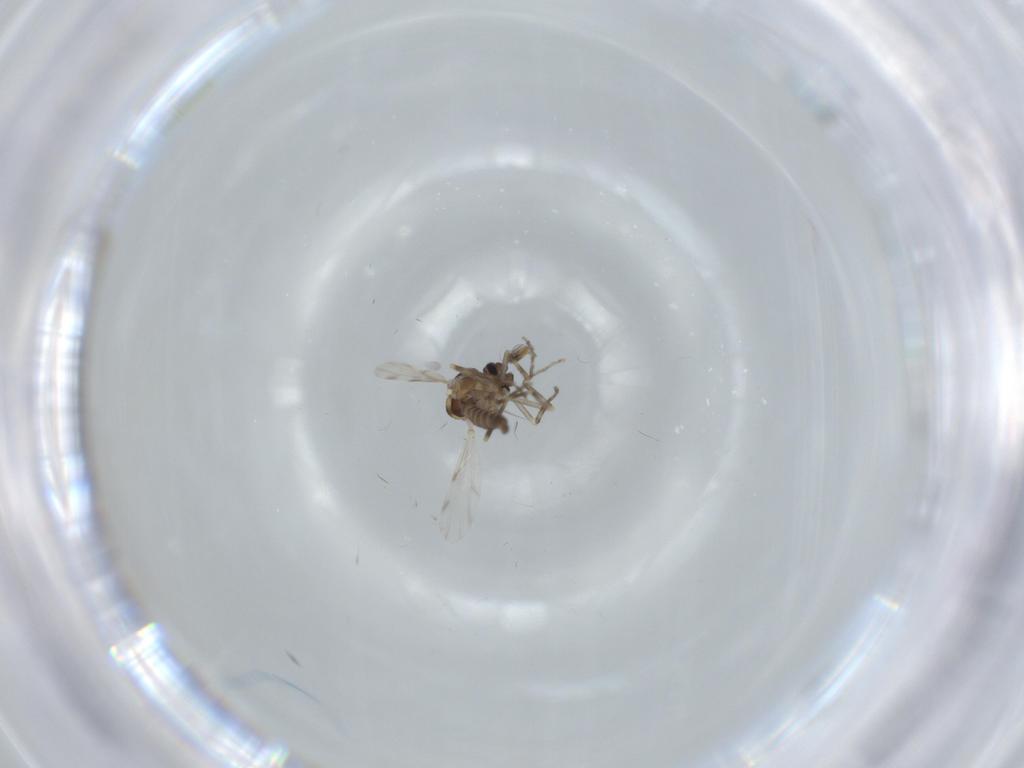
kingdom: Animalia
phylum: Arthropoda
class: Insecta
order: Diptera
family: Ceratopogonidae
